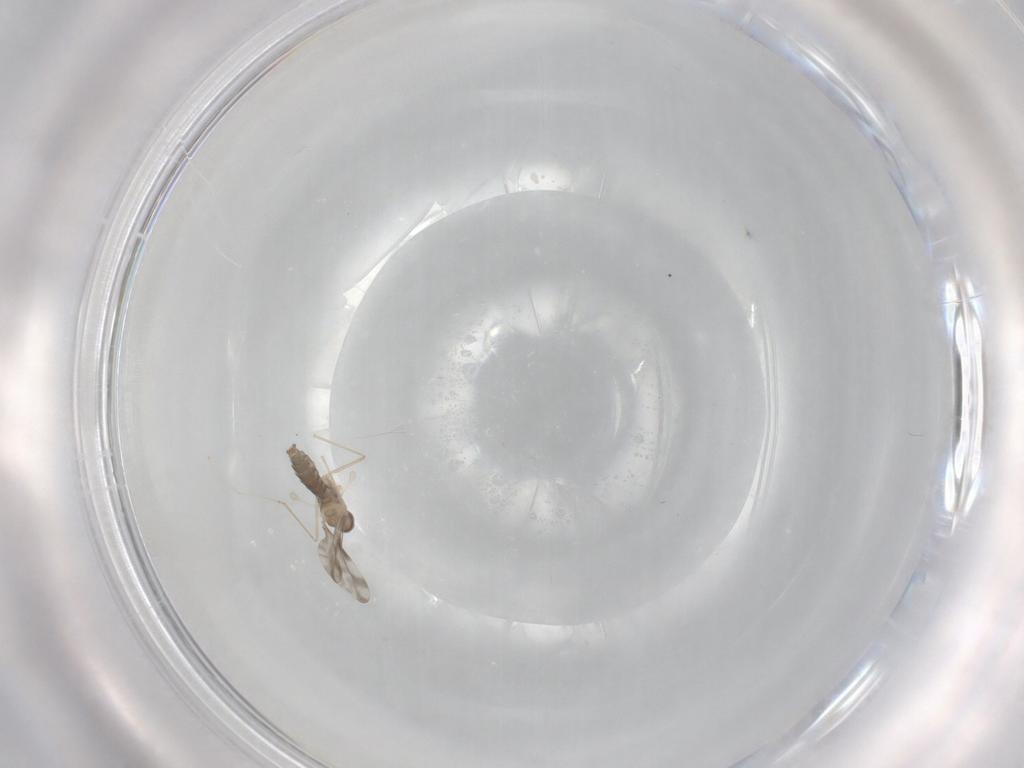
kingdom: Animalia
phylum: Arthropoda
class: Insecta
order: Diptera
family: Cecidomyiidae
